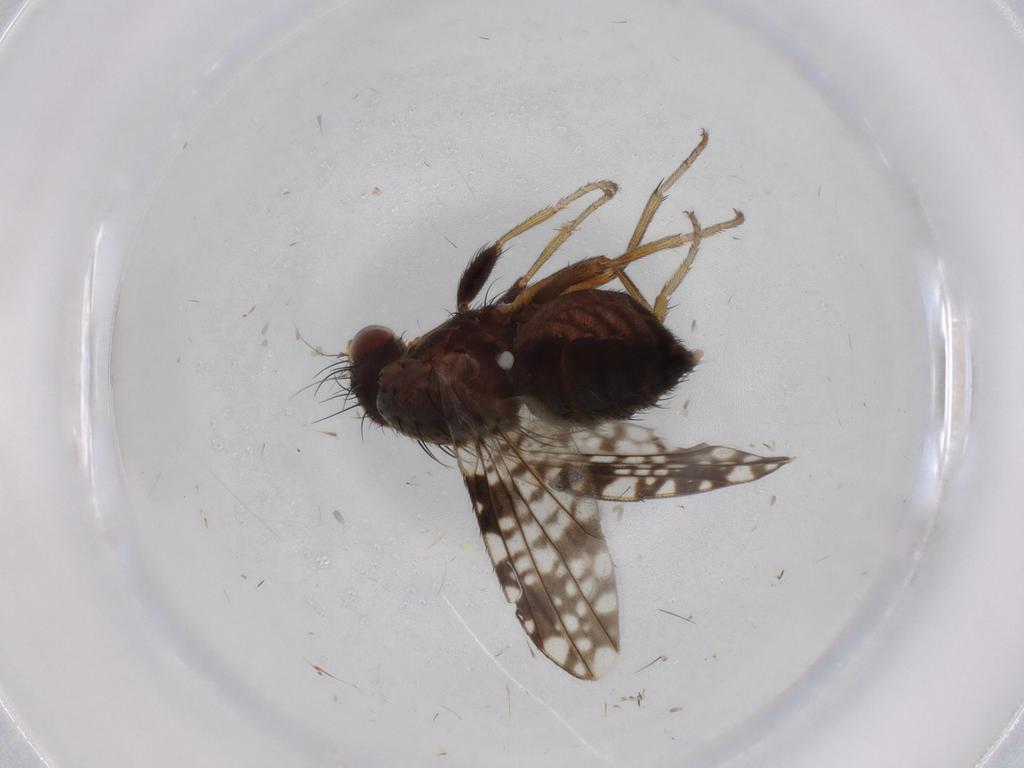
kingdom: Animalia
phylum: Arthropoda
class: Insecta
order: Diptera
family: Tephritidae
